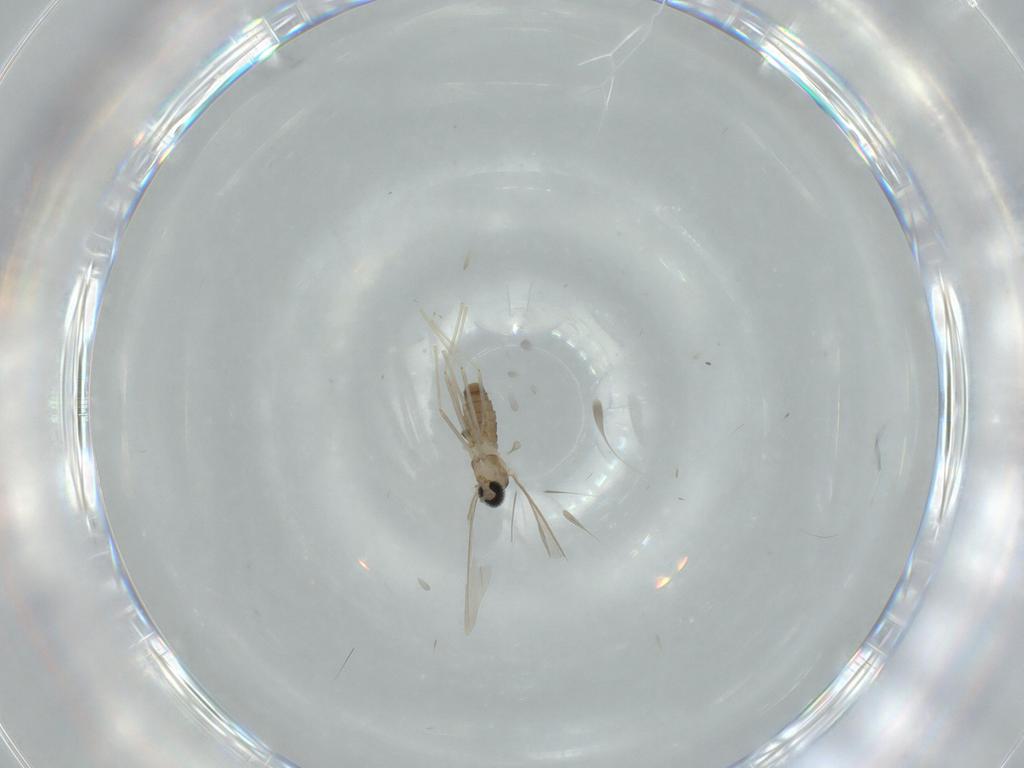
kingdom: Animalia
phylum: Arthropoda
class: Insecta
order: Diptera
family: Cecidomyiidae
